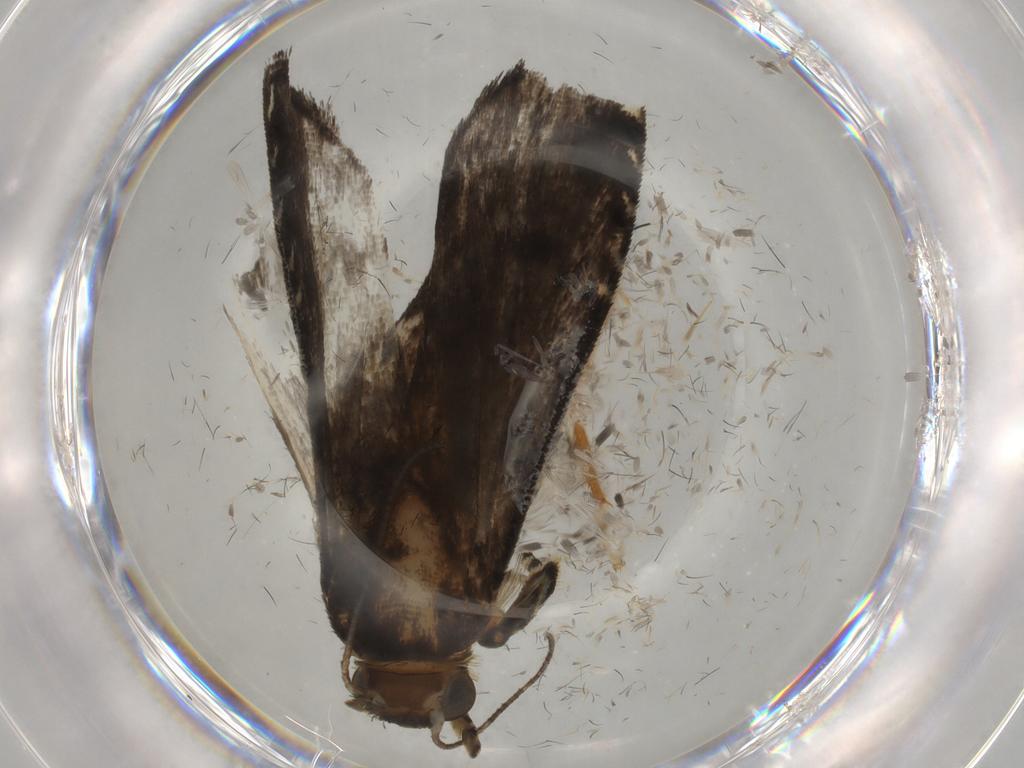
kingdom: Animalia
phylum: Arthropoda
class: Insecta
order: Lepidoptera
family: Immidae
